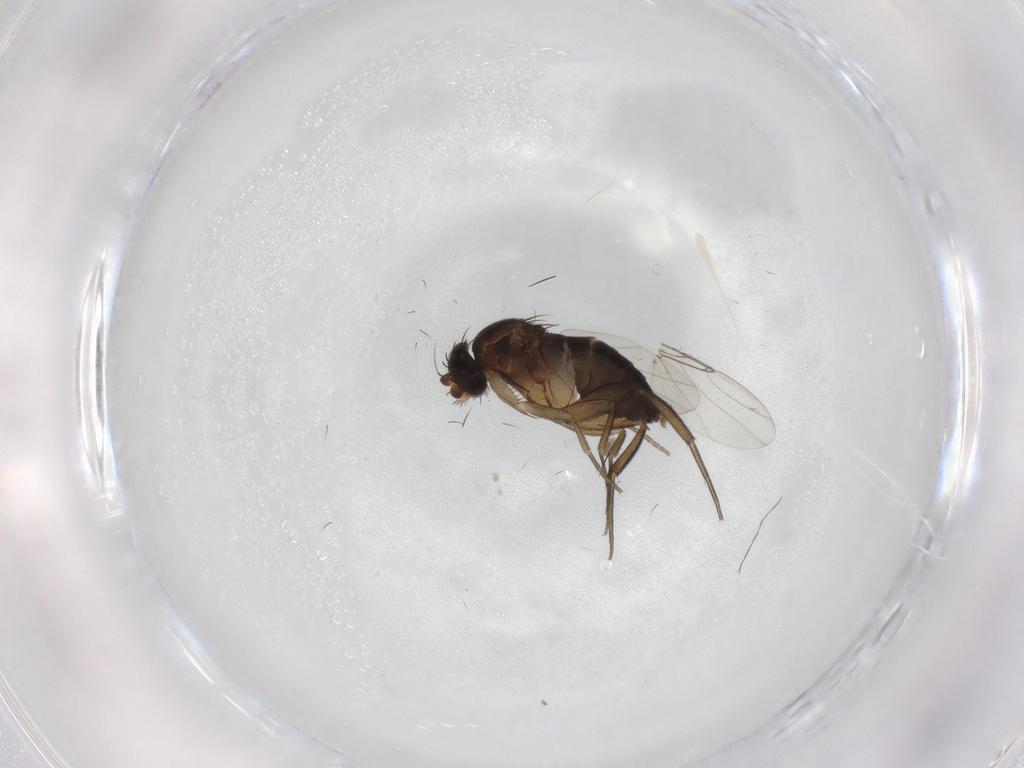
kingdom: Animalia
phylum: Arthropoda
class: Insecta
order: Diptera
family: Phoridae
